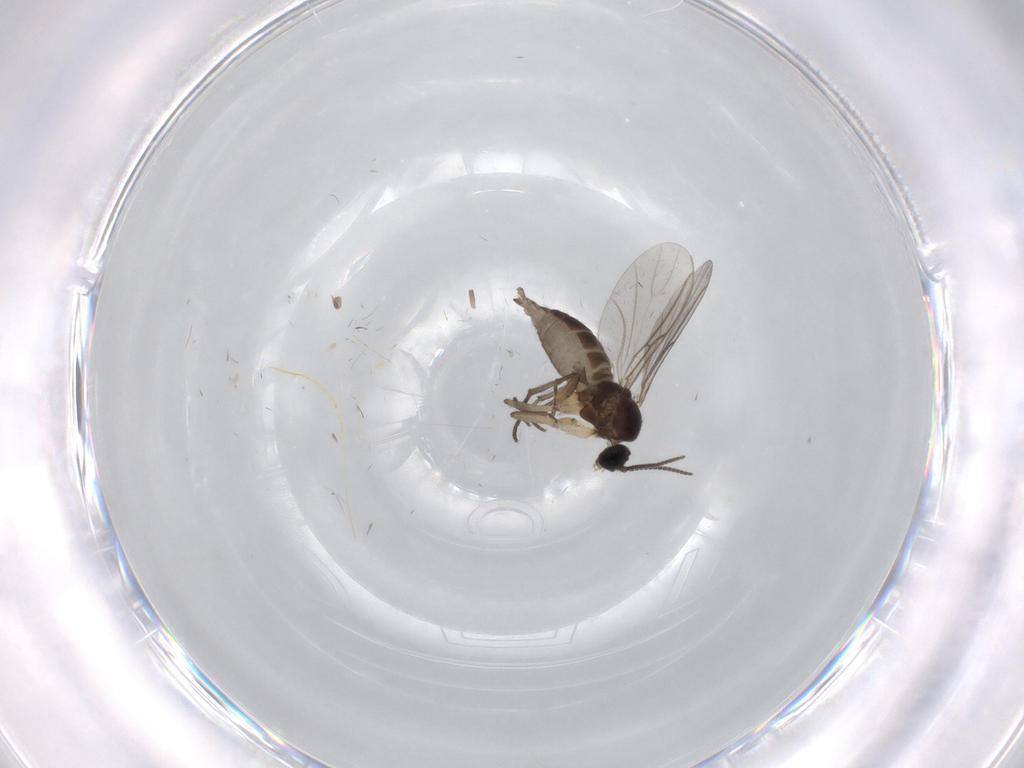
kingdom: Animalia
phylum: Arthropoda
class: Insecta
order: Diptera
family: Sciaridae
